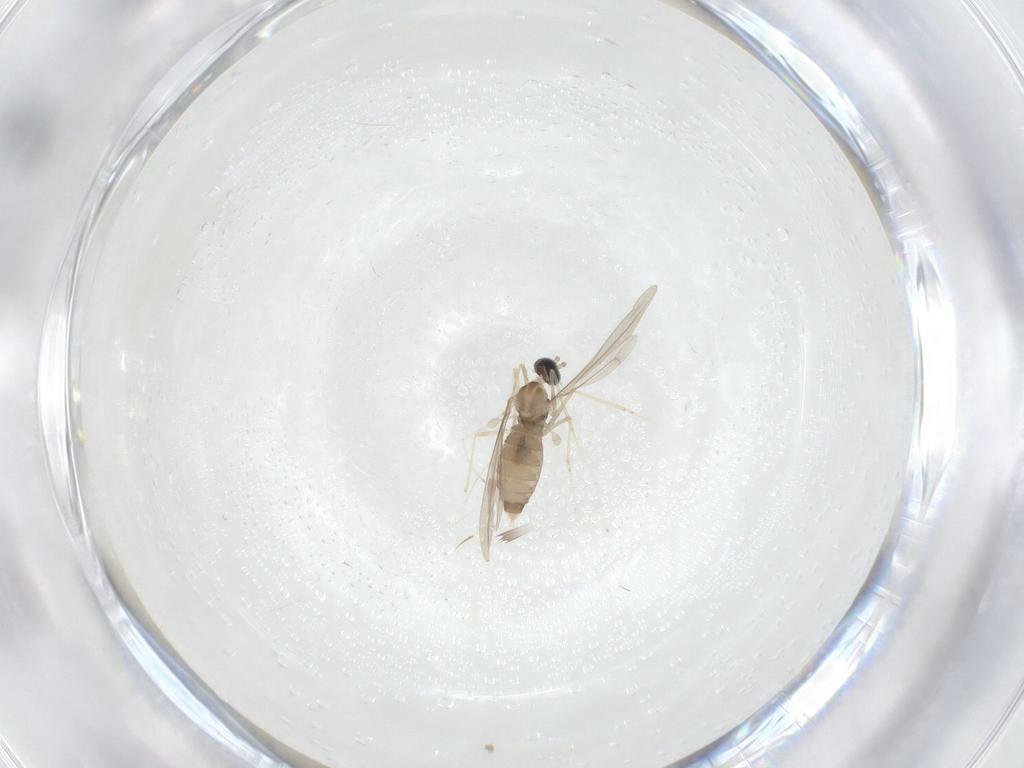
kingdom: Animalia
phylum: Arthropoda
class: Insecta
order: Diptera
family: Cecidomyiidae
